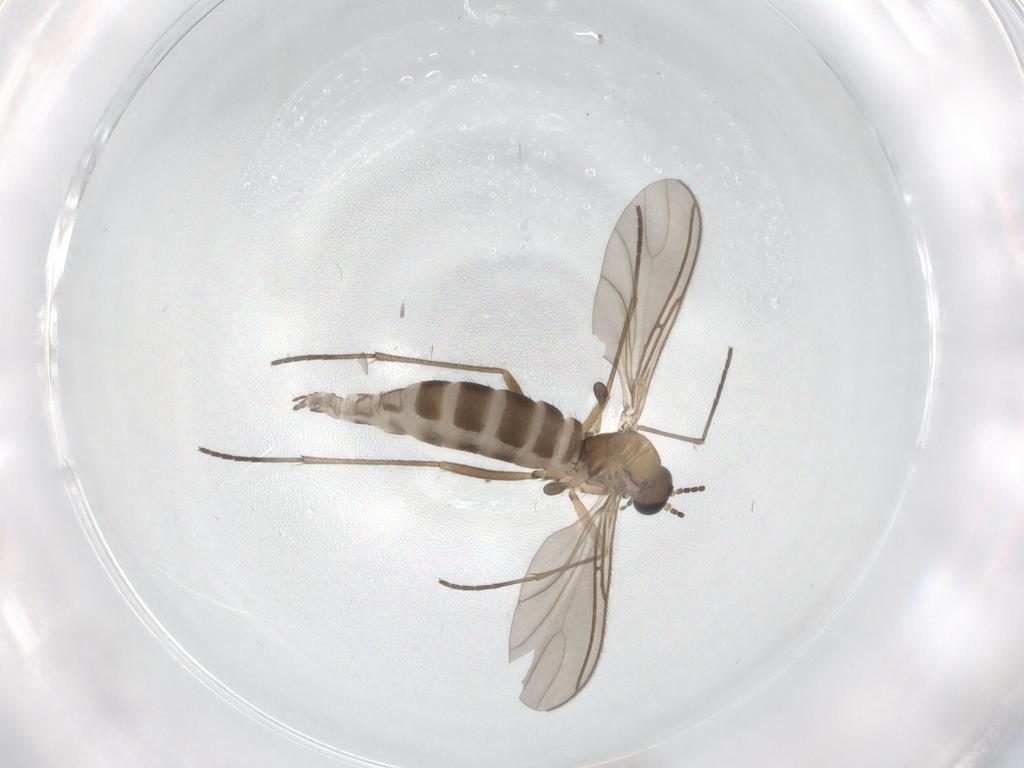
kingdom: Animalia
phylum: Arthropoda
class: Insecta
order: Diptera
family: Sciaridae
